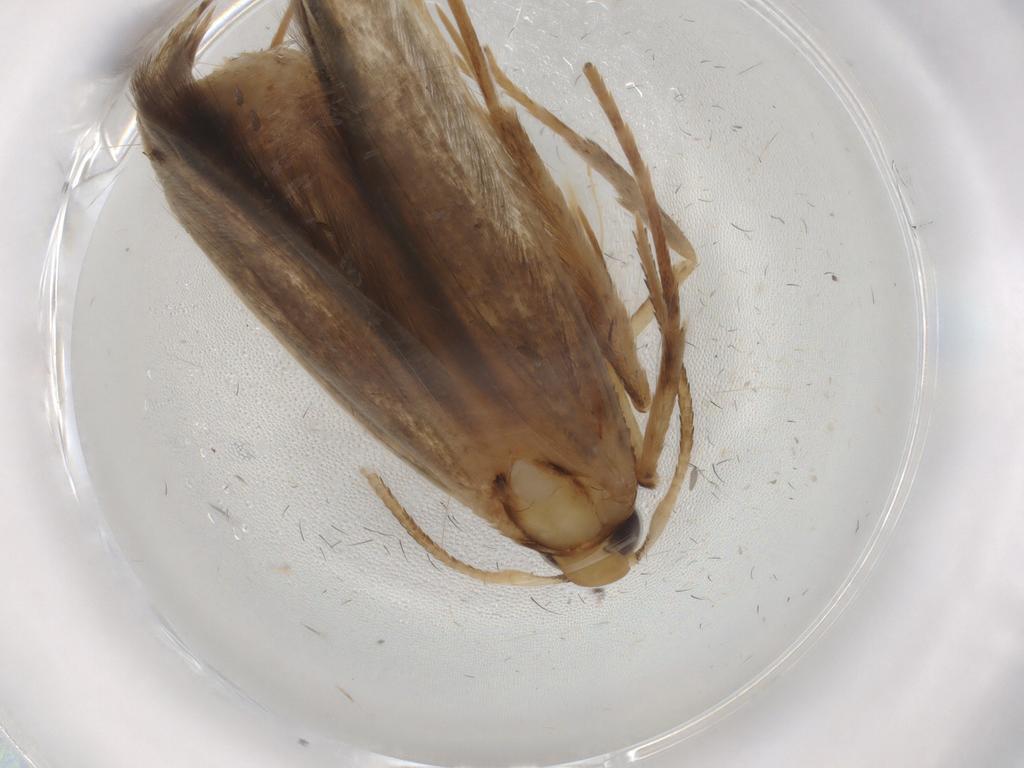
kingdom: Animalia
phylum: Arthropoda
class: Insecta
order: Lepidoptera
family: Coleophoridae
